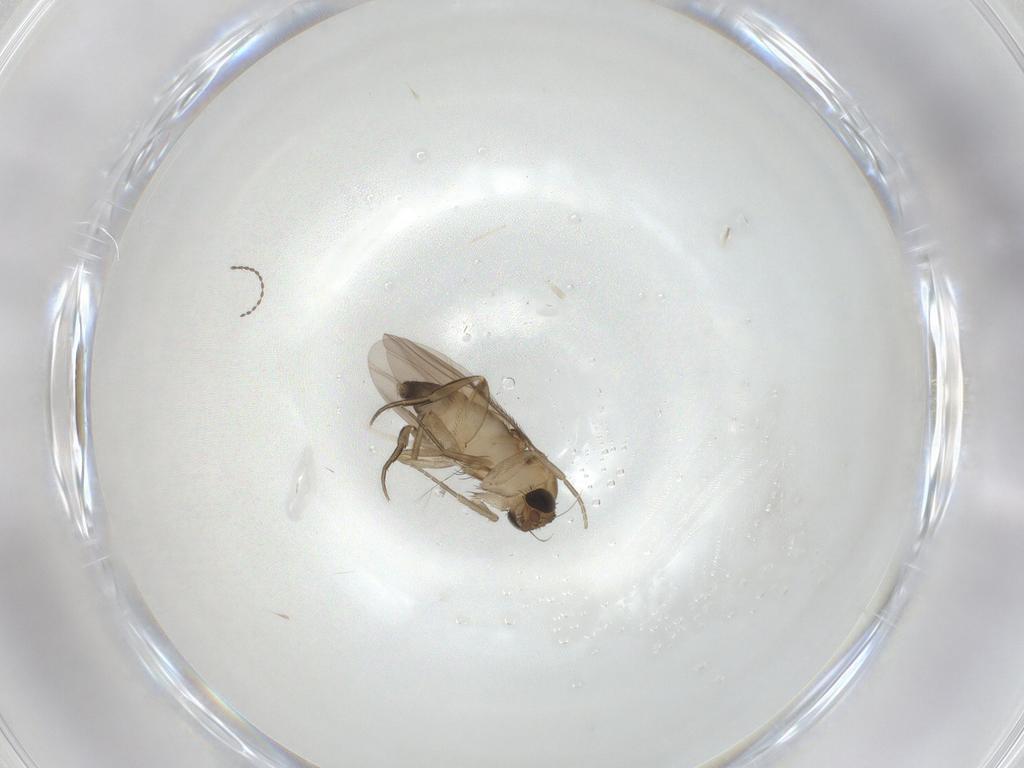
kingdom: Animalia
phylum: Arthropoda
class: Insecta
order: Diptera
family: Phoridae
